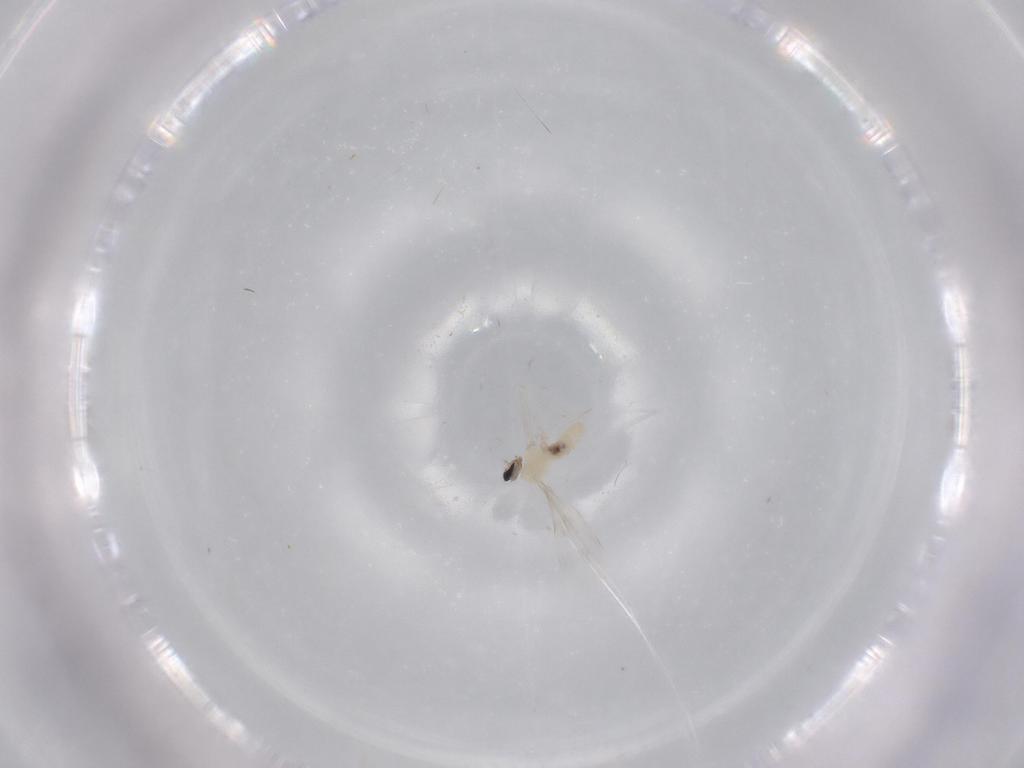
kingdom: Animalia
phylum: Arthropoda
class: Insecta
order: Diptera
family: Cecidomyiidae
